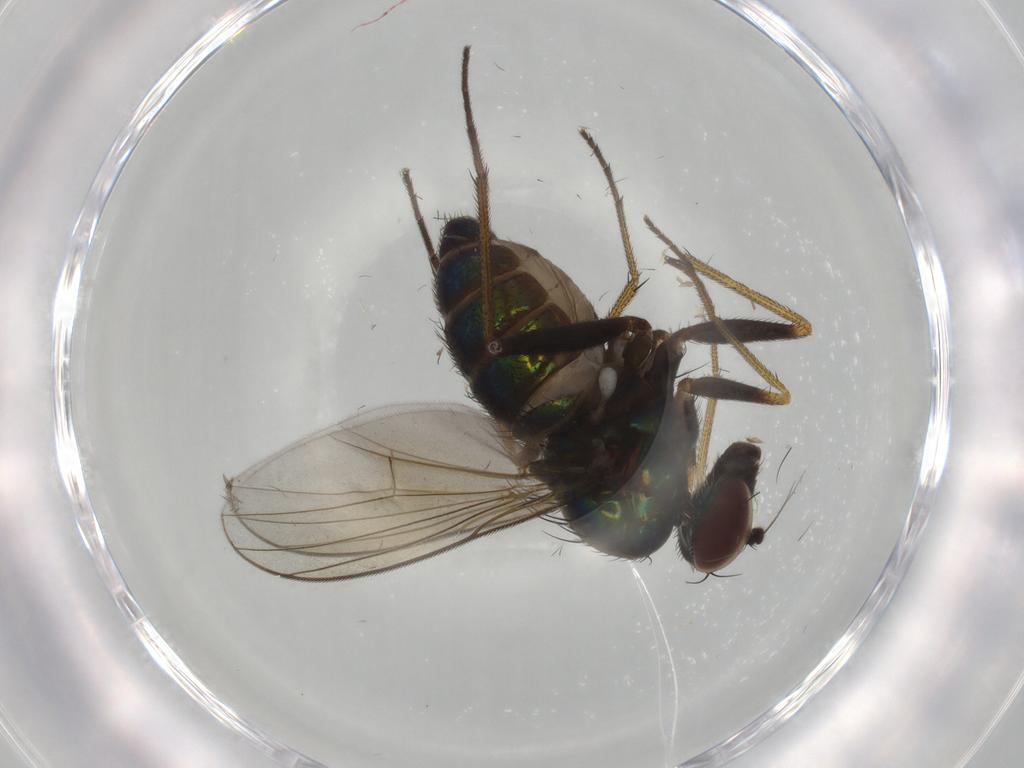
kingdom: Animalia
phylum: Arthropoda
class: Insecta
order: Diptera
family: Dolichopodidae
